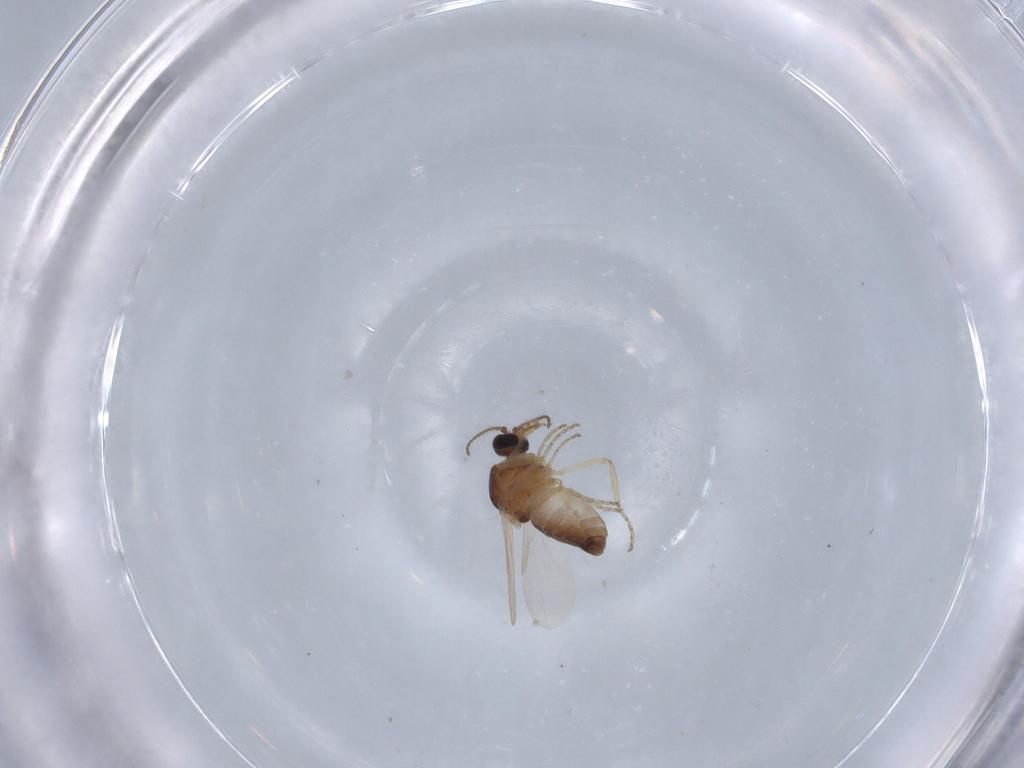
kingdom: Animalia
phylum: Arthropoda
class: Insecta
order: Diptera
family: Ceratopogonidae
